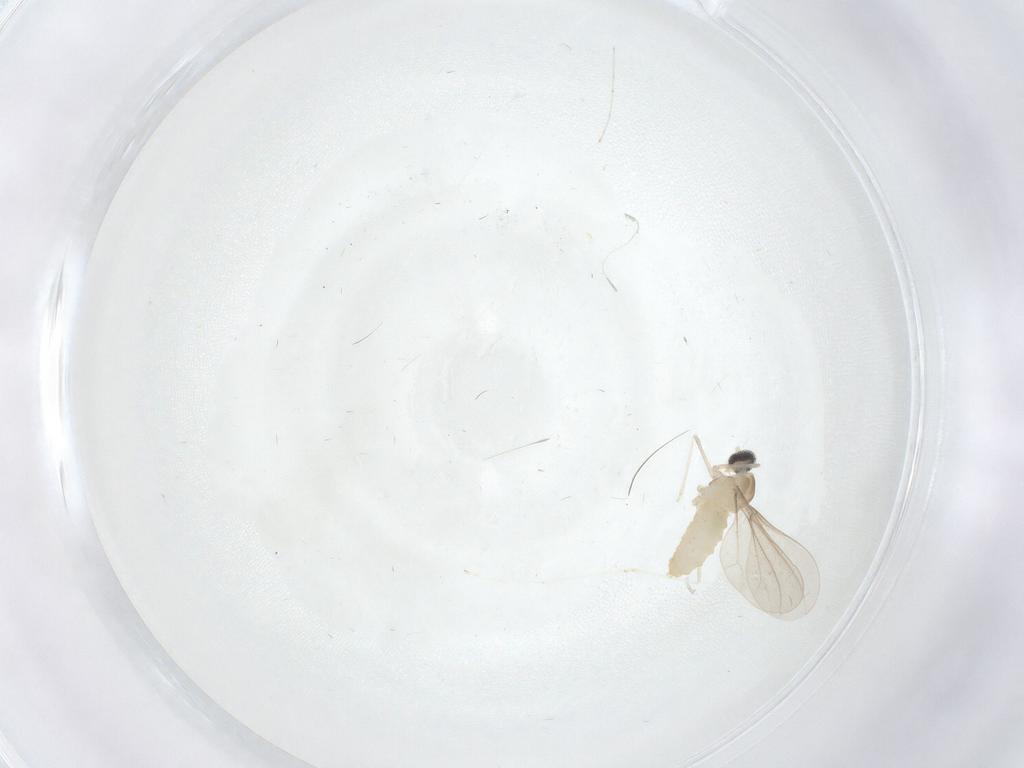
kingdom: Animalia
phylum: Arthropoda
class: Insecta
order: Diptera
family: Cecidomyiidae
